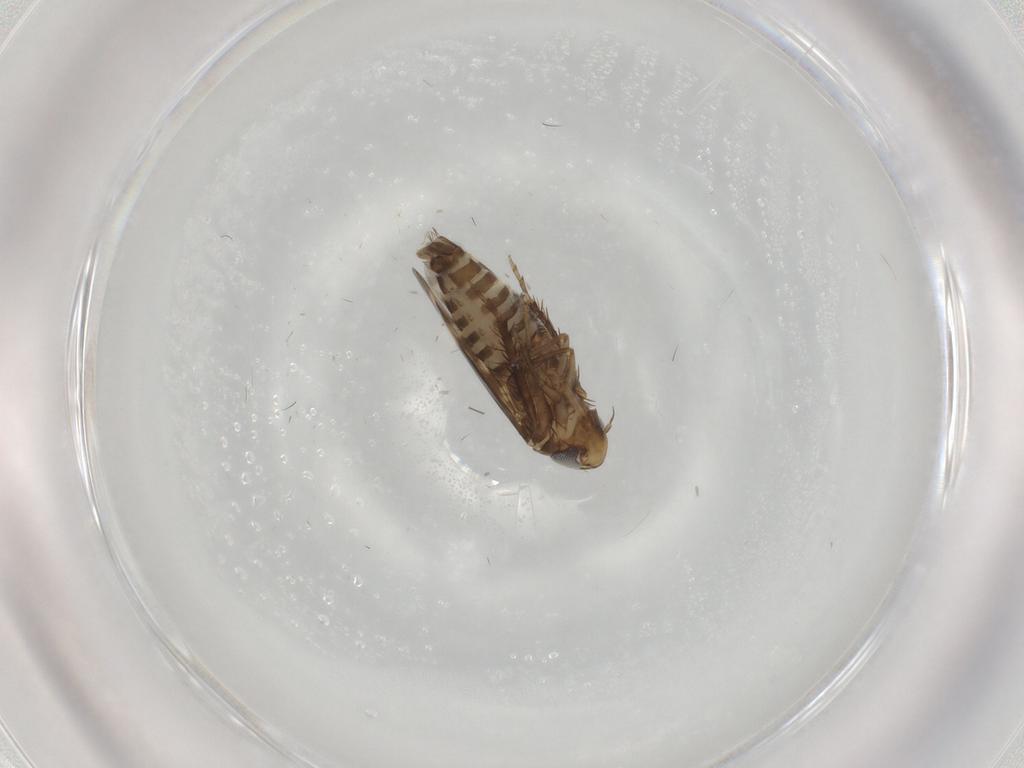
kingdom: Animalia
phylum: Arthropoda
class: Insecta
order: Hemiptera
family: Cicadellidae
